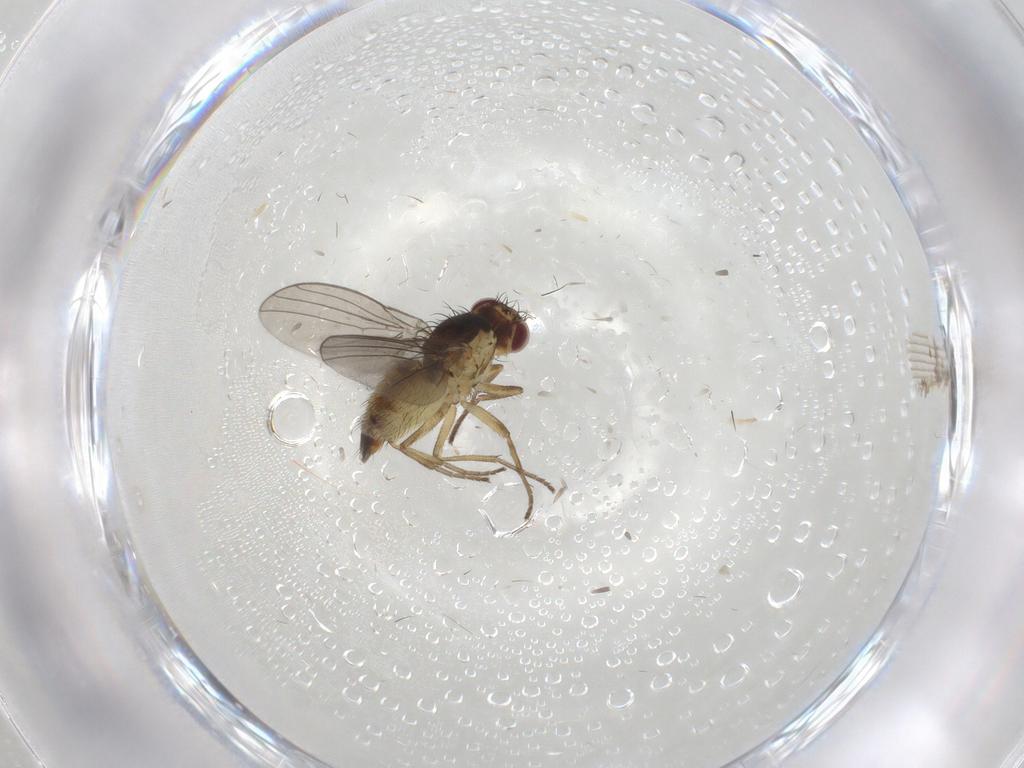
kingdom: Animalia
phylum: Arthropoda
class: Insecta
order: Diptera
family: Agromyzidae
